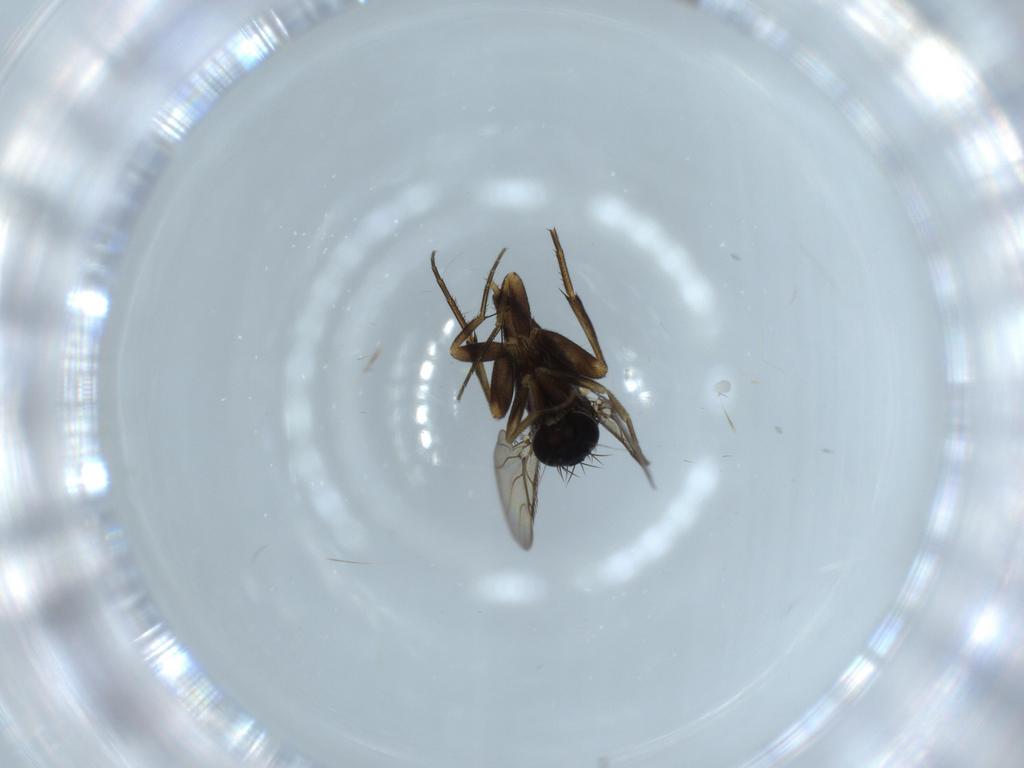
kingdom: Animalia
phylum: Arthropoda
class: Insecta
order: Diptera
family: Phoridae
